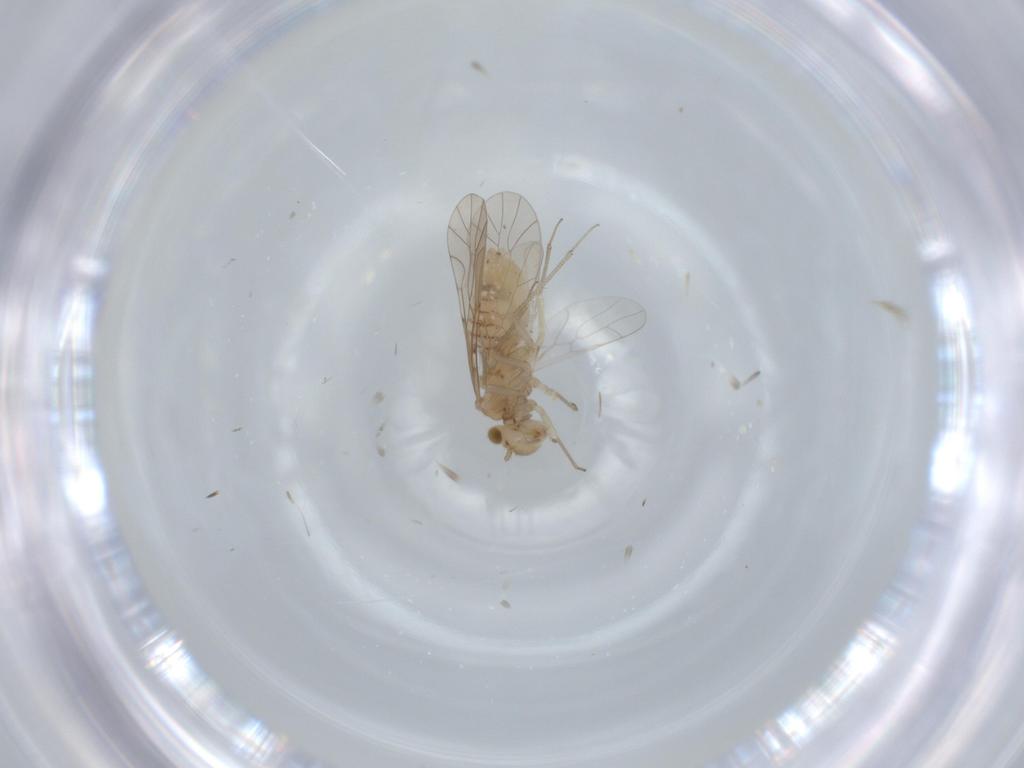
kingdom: Animalia
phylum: Arthropoda
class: Insecta
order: Psocodea
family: Lachesillidae
